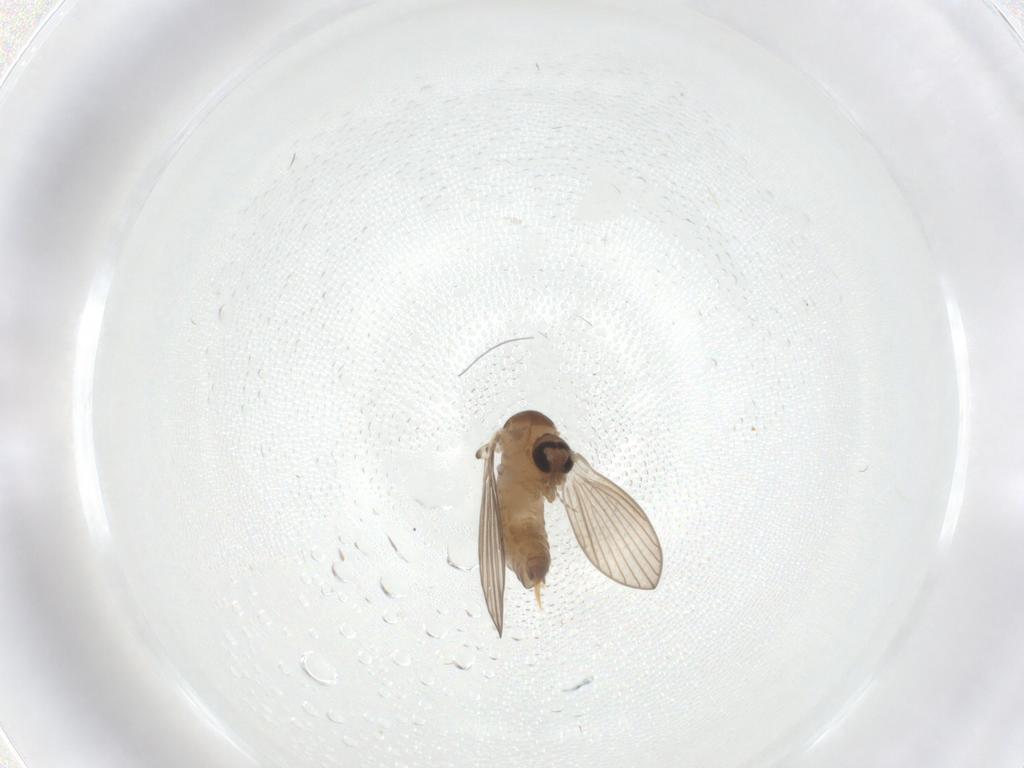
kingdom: Animalia
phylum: Arthropoda
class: Insecta
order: Diptera
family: Psychodidae
